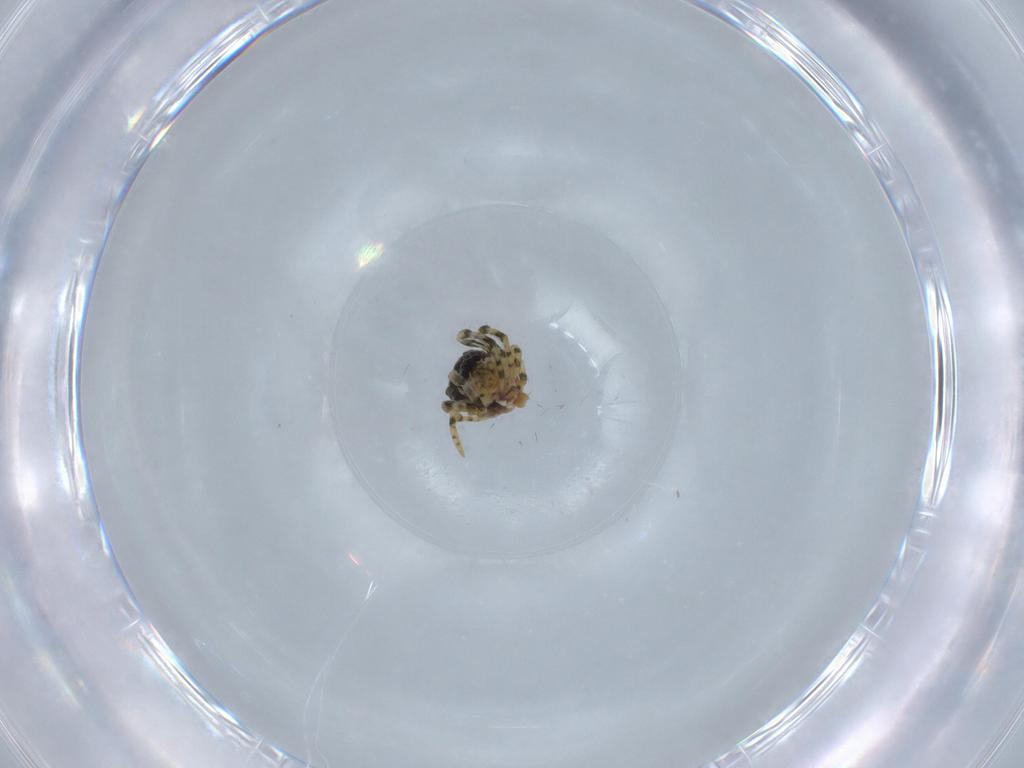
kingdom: Animalia
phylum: Arthropoda
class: Arachnida
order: Araneae
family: Tetragnathidae
